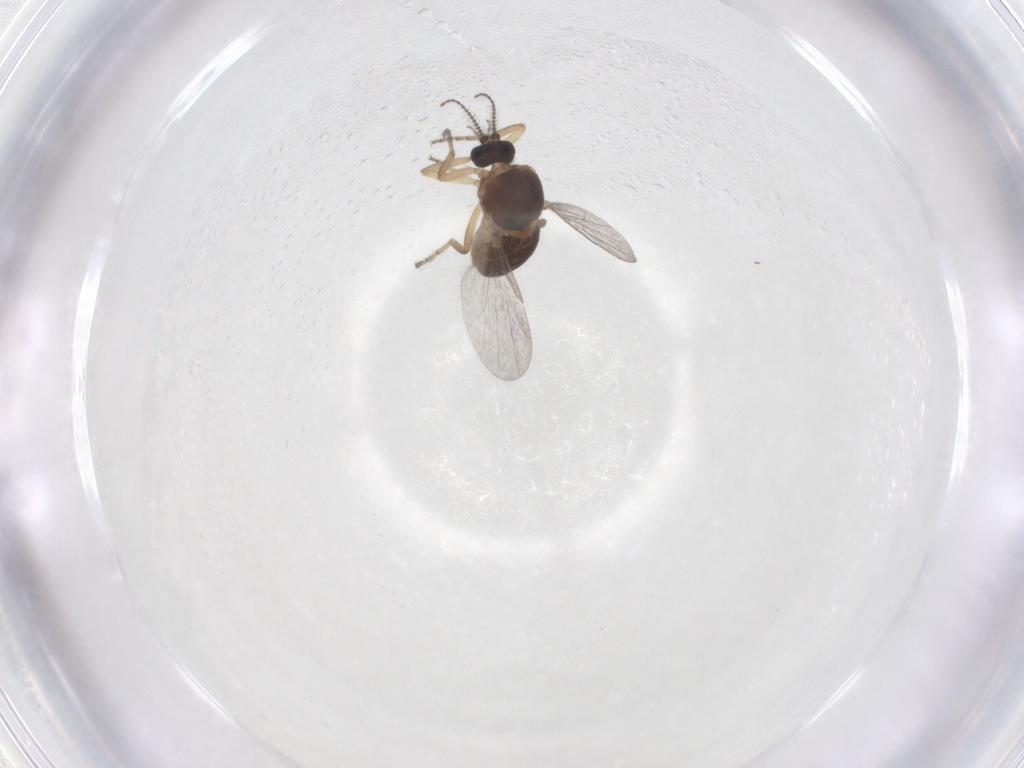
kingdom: Animalia
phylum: Arthropoda
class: Insecta
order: Diptera
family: Ceratopogonidae
